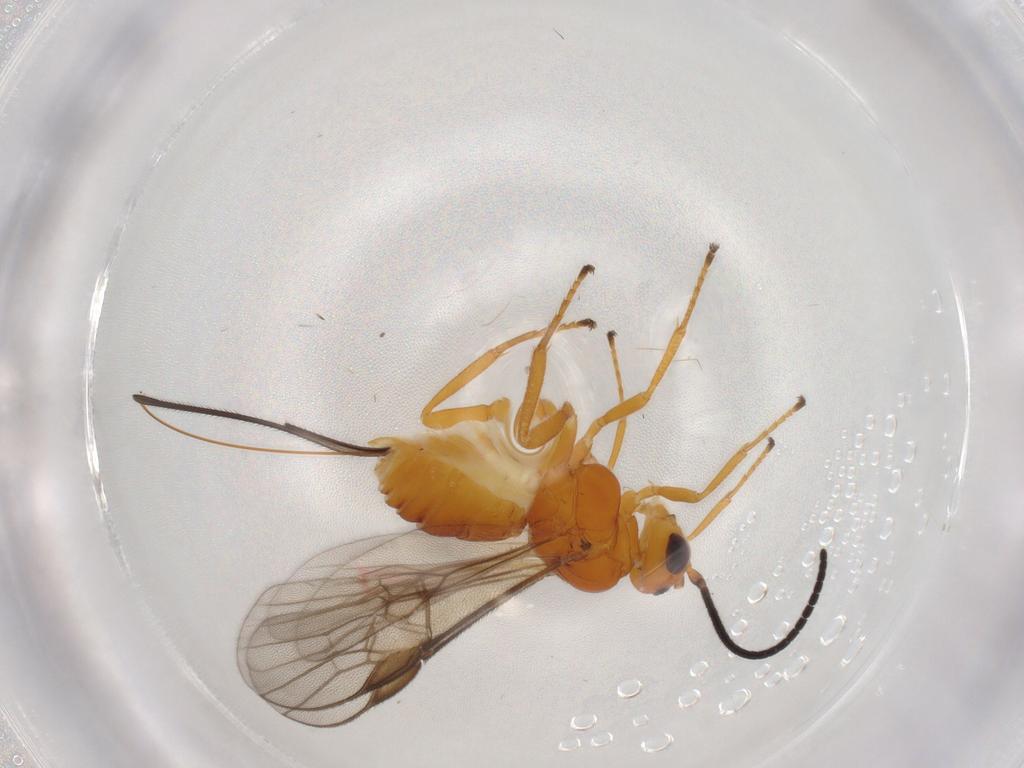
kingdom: Animalia
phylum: Arthropoda
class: Insecta
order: Hymenoptera
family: Braconidae
